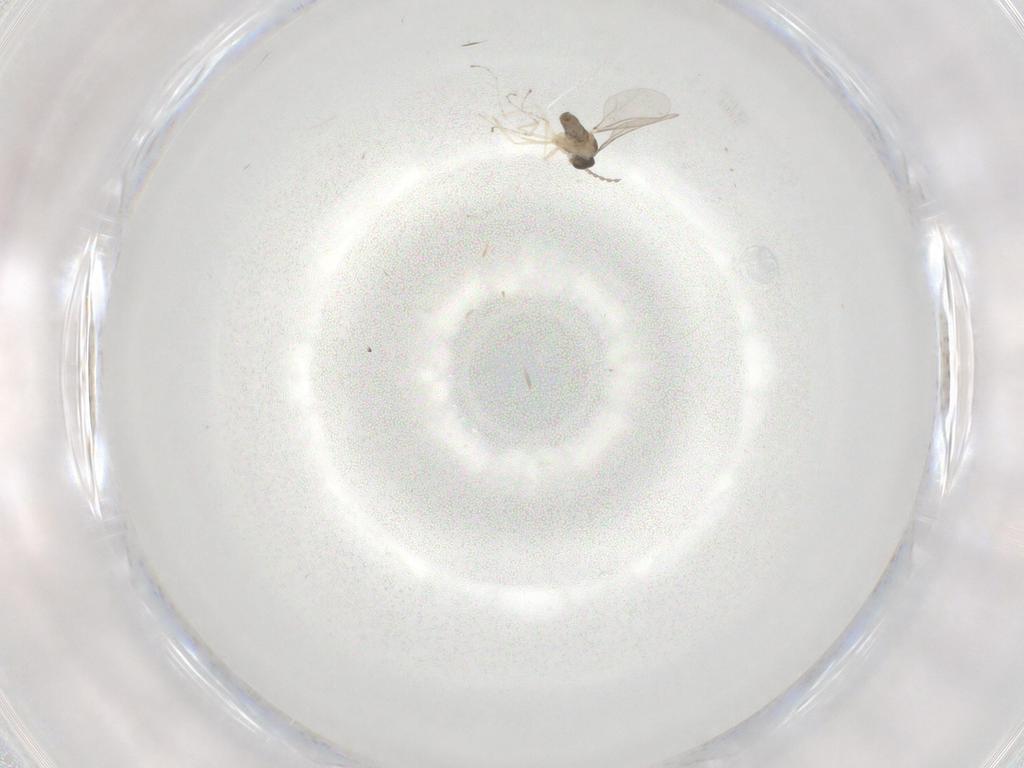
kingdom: Animalia
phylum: Arthropoda
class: Insecta
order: Diptera
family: Cecidomyiidae
